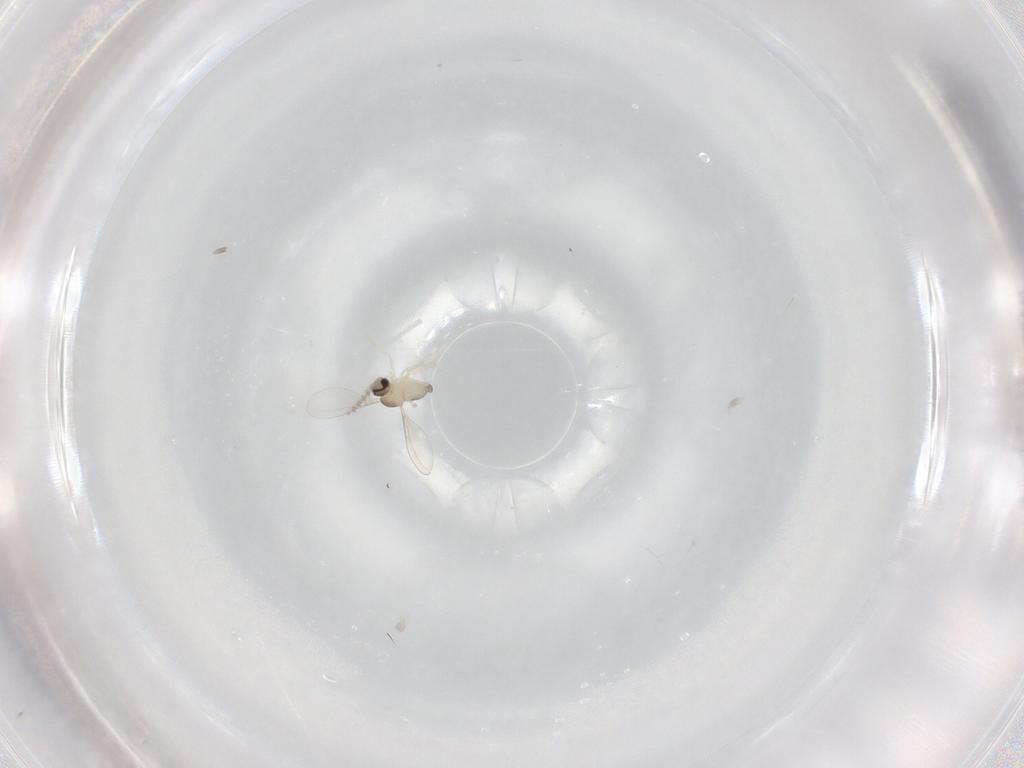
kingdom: Animalia
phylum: Arthropoda
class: Insecta
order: Diptera
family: Cecidomyiidae
